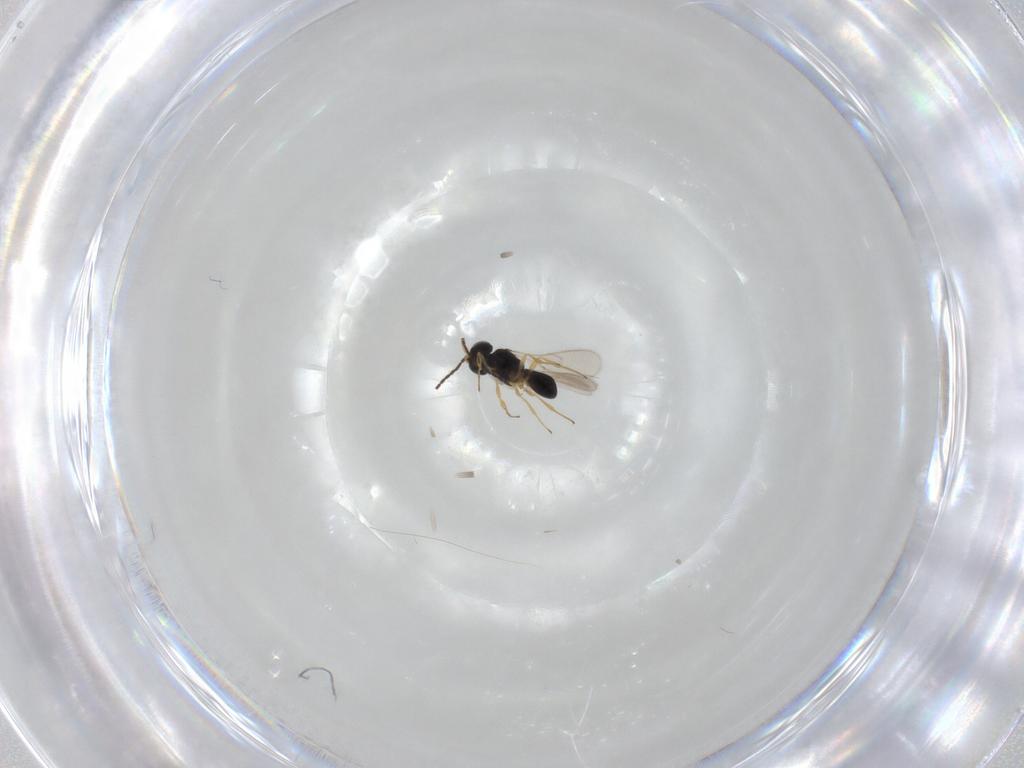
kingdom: Animalia
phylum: Arthropoda
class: Insecta
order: Hymenoptera
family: Scelionidae
